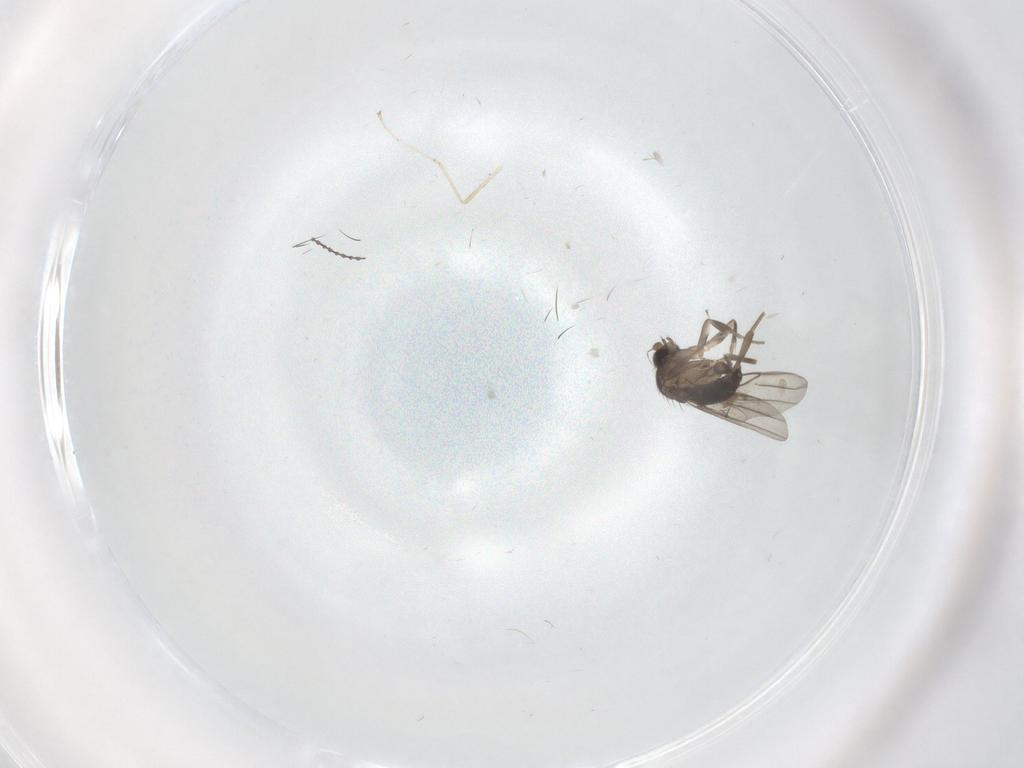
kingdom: Animalia
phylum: Arthropoda
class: Insecta
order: Diptera
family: Phoridae
